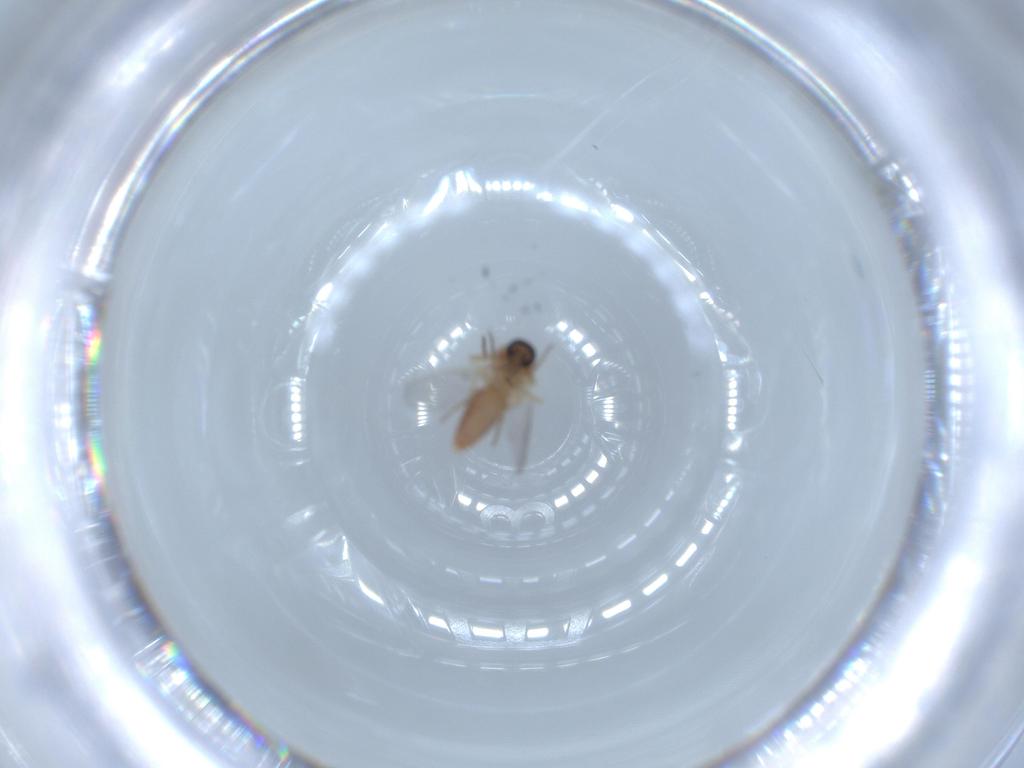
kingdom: Animalia
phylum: Arthropoda
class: Insecta
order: Diptera
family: Ceratopogonidae
